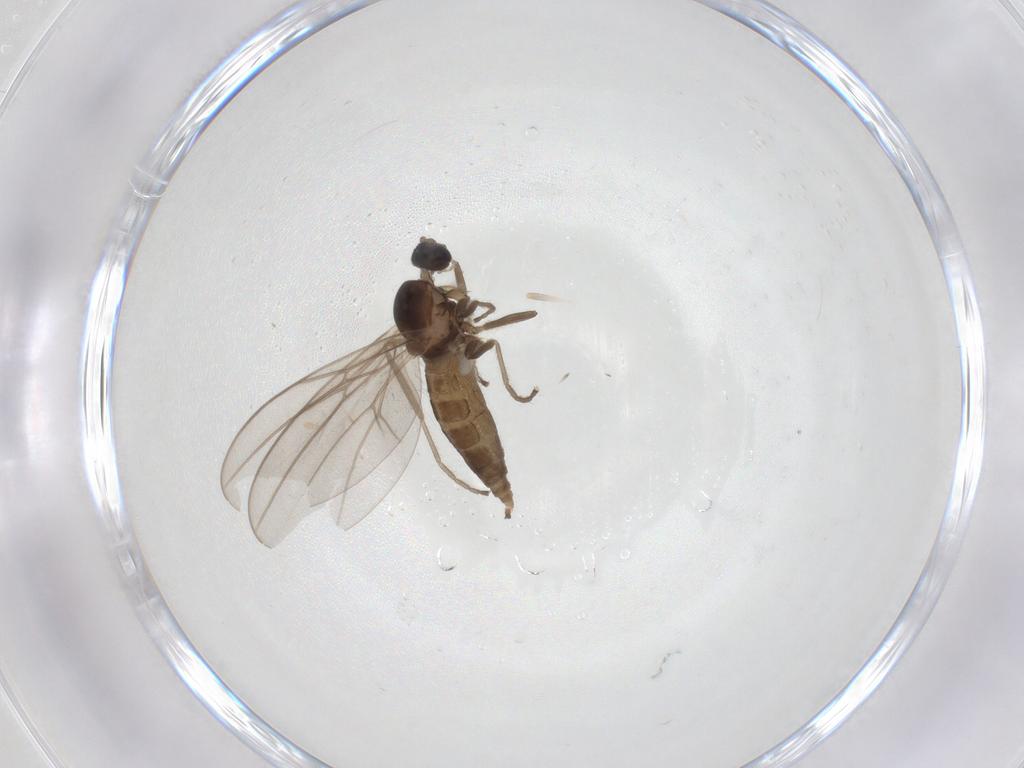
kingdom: Animalia
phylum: Arthropoda
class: Insecta
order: Diptera
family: Cecidomyiidae
